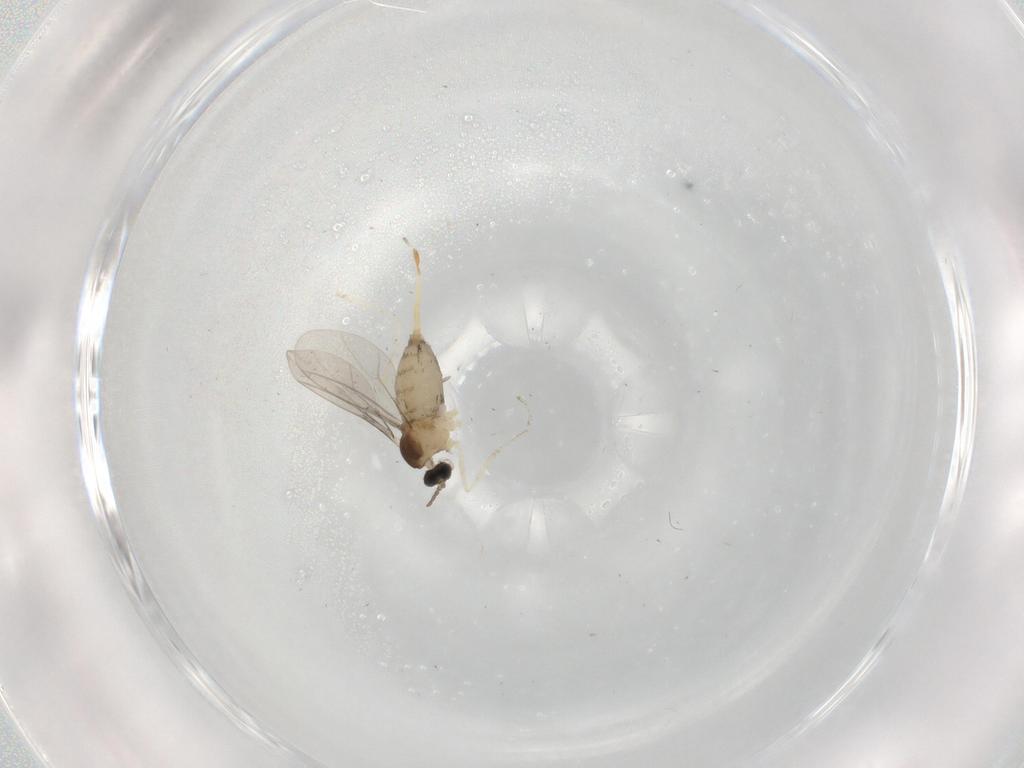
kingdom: Animalia
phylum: Arthropoda
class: Insecta
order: Diptera
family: Cecidomyiidae
